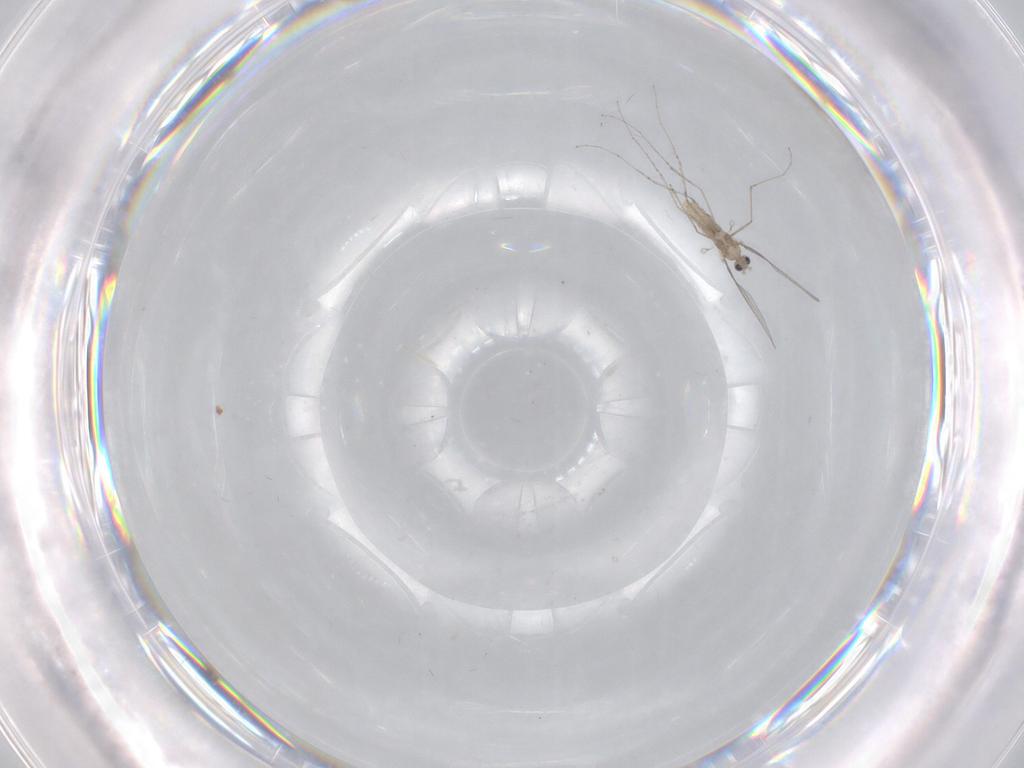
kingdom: Animalia
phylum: Arthropoda
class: Insecta
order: Diptera
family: Cecidomyiidae
